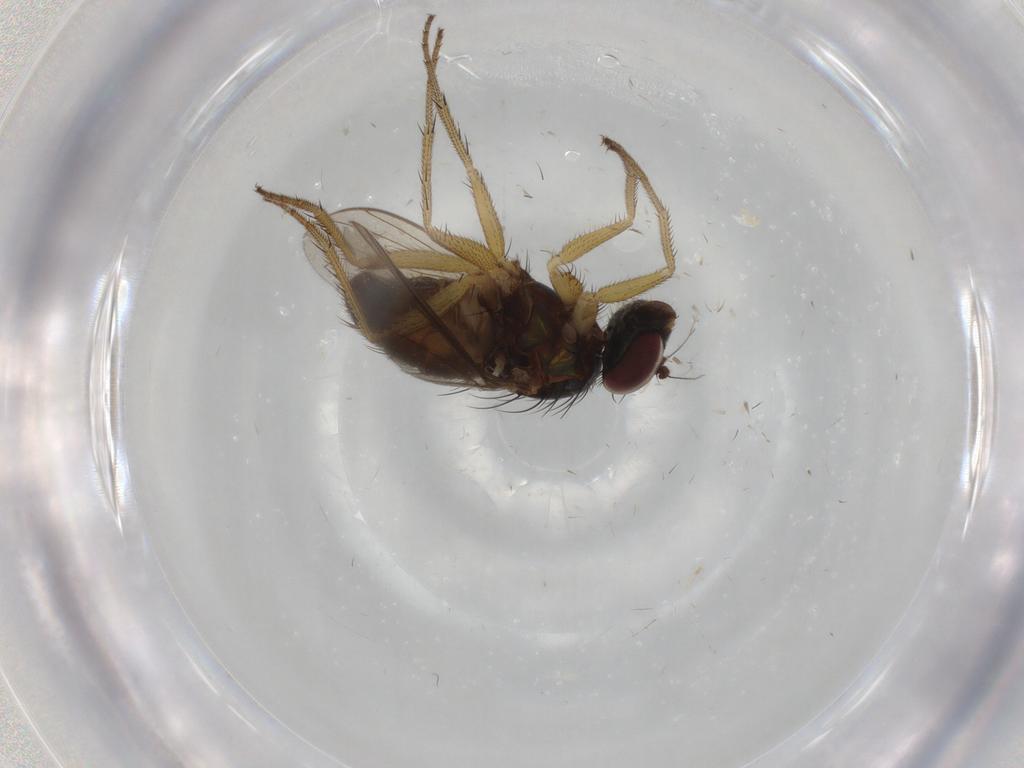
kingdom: Animalia
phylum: Arthropoda
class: Insecta
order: Diptera
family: Dolichopodidae
